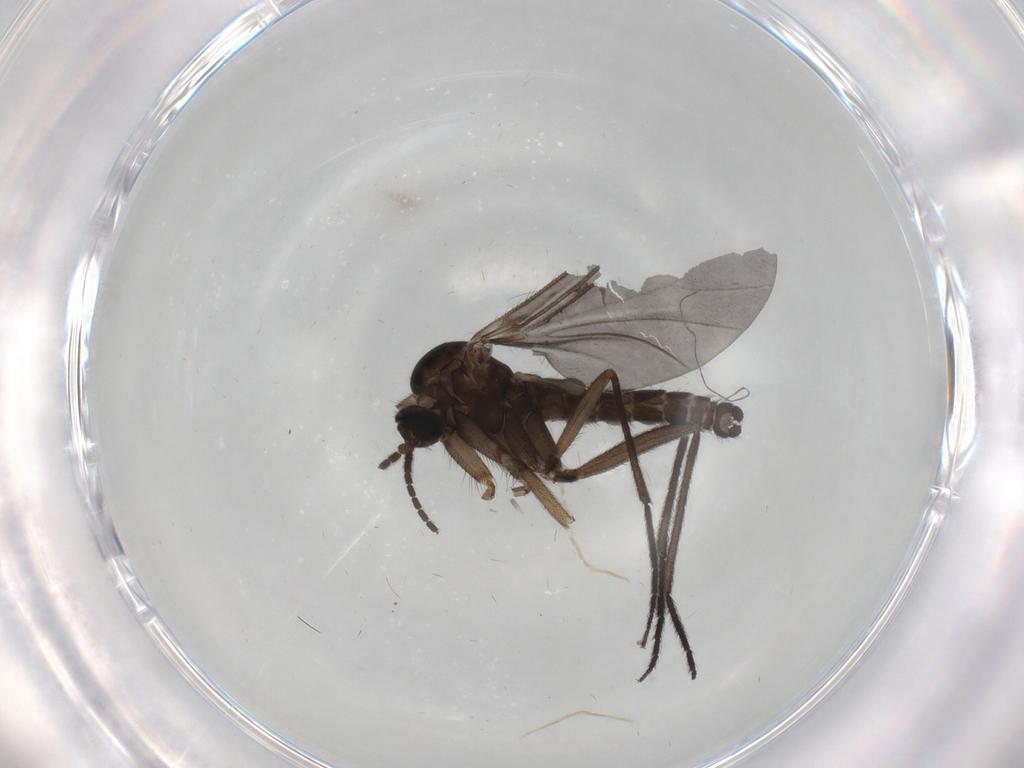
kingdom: Animalia
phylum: Arthropoda
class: Insecta
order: Diptera
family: Sciaridae
